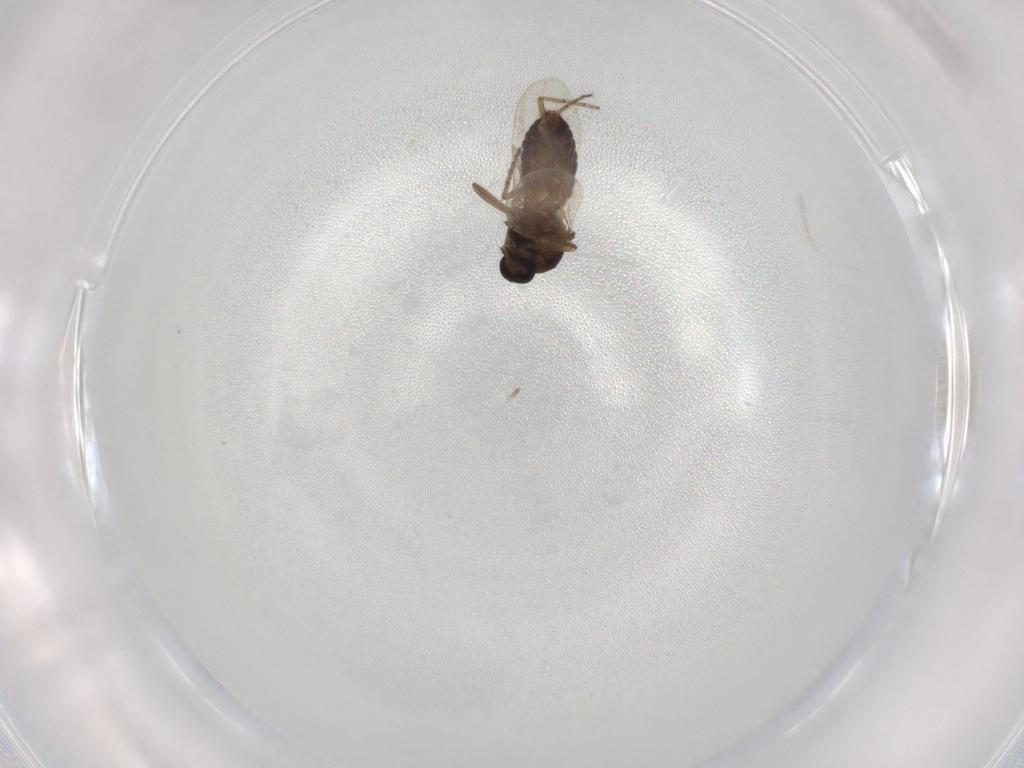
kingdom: Animalia
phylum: Arthropoda
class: Insecta
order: Diptera
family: Ceratopogonidae
